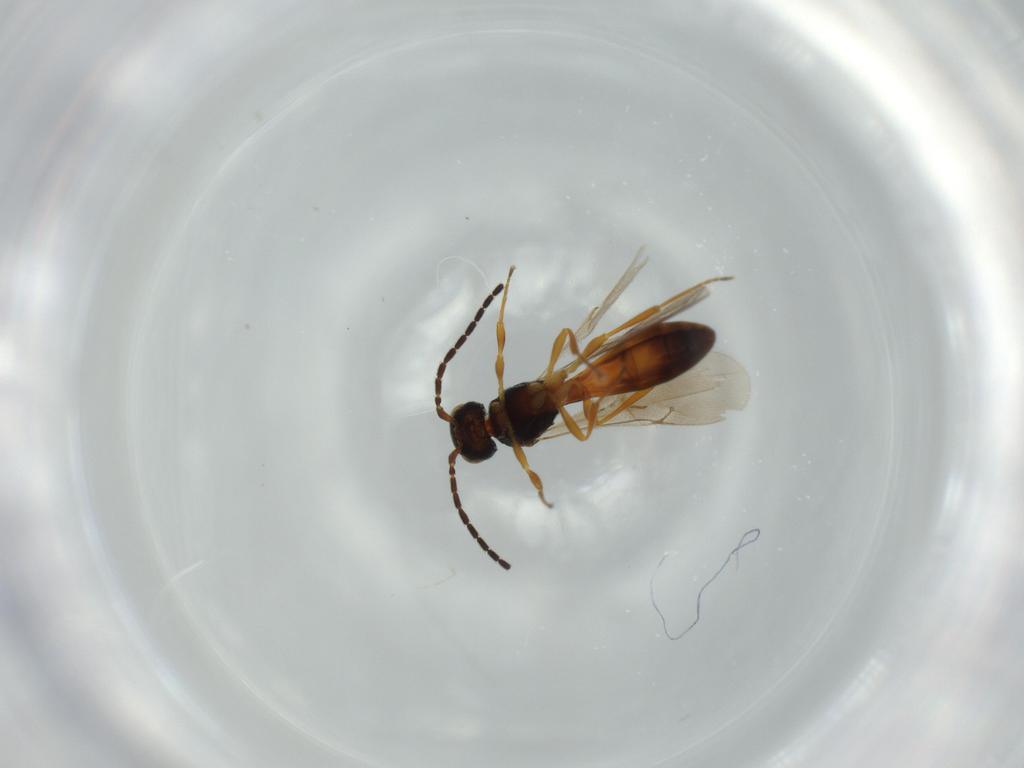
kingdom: Animalia
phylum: Arthropoda
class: Insecta
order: Hymenoptera
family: Scelionidae
